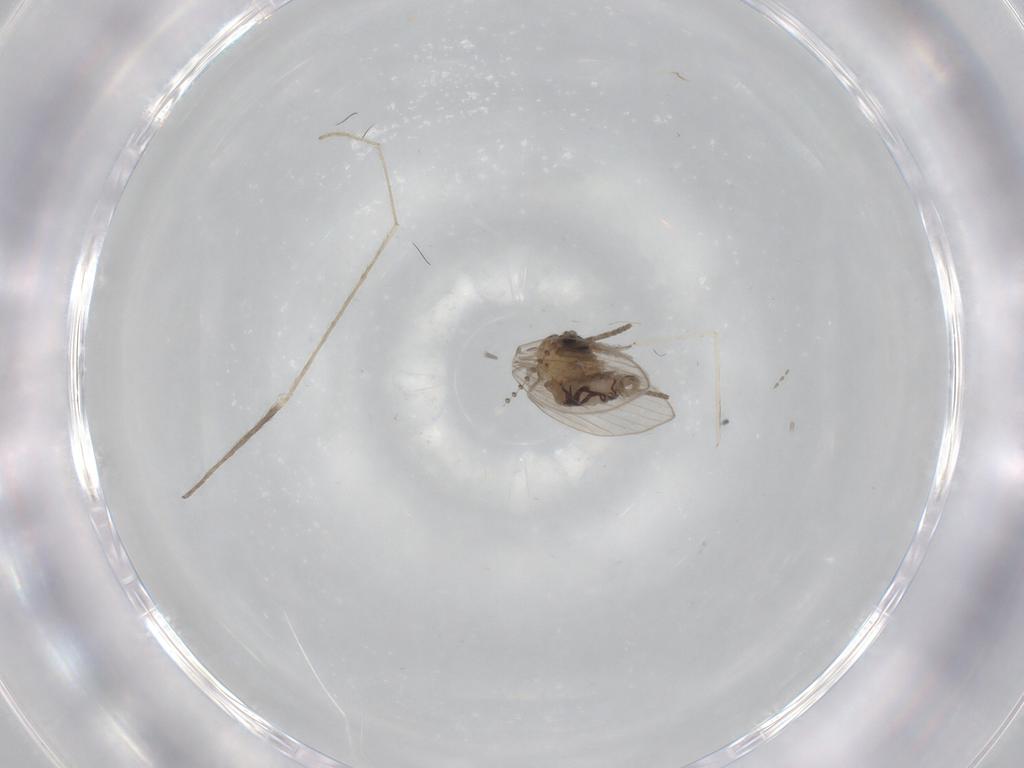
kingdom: Animalia
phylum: Arthropoda
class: Insecta
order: Diptera
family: Psychodidae
